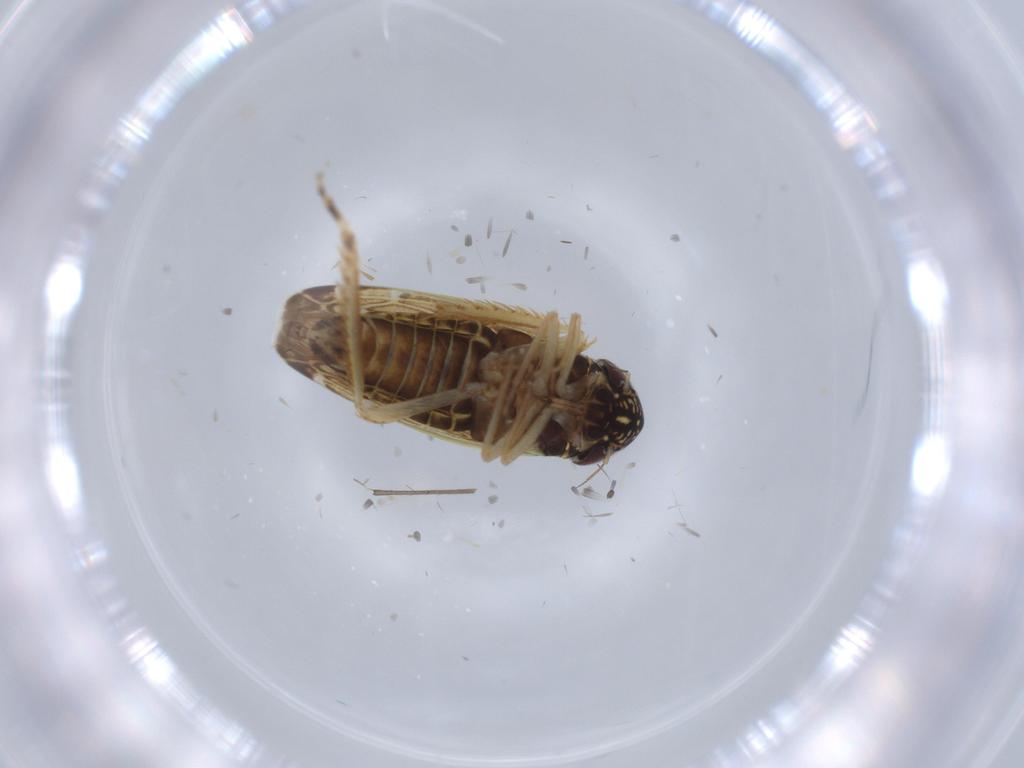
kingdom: Animalia
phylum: Arthropoda
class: Insecta
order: Hemiptera
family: Cicadellidae
